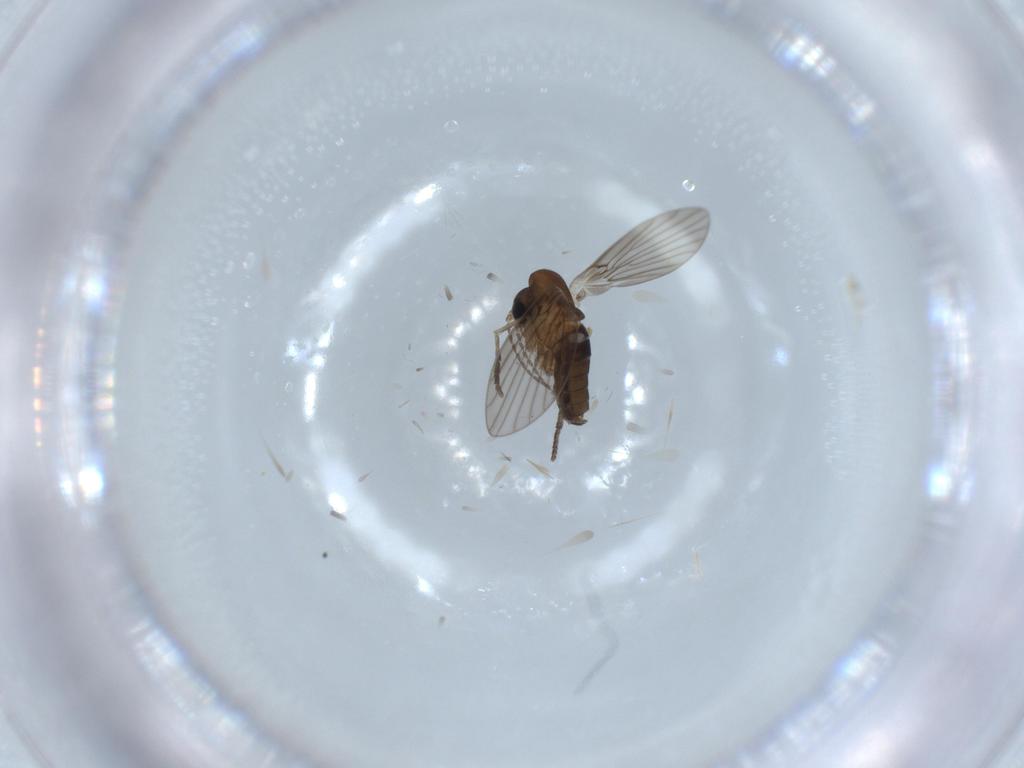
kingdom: Animalia
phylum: Arthropoda
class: Insecta
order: Diptera
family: Psychodidae
